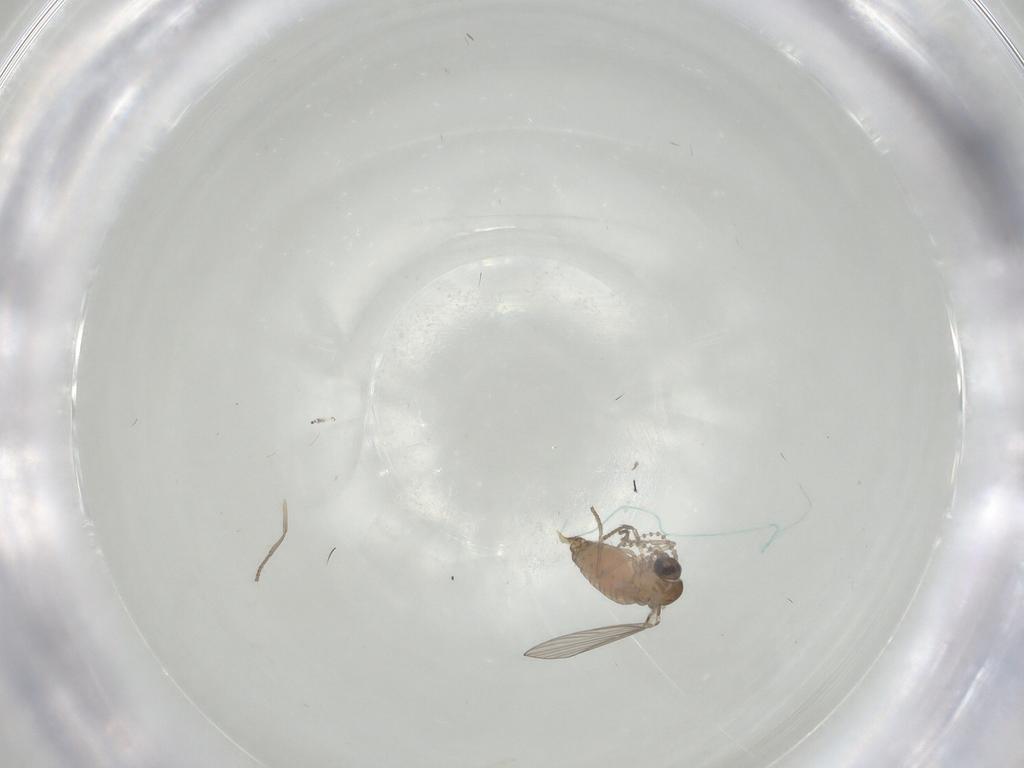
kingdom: Animalia
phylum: Arthropoda
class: Insecta
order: Diptera
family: Psychodidae
